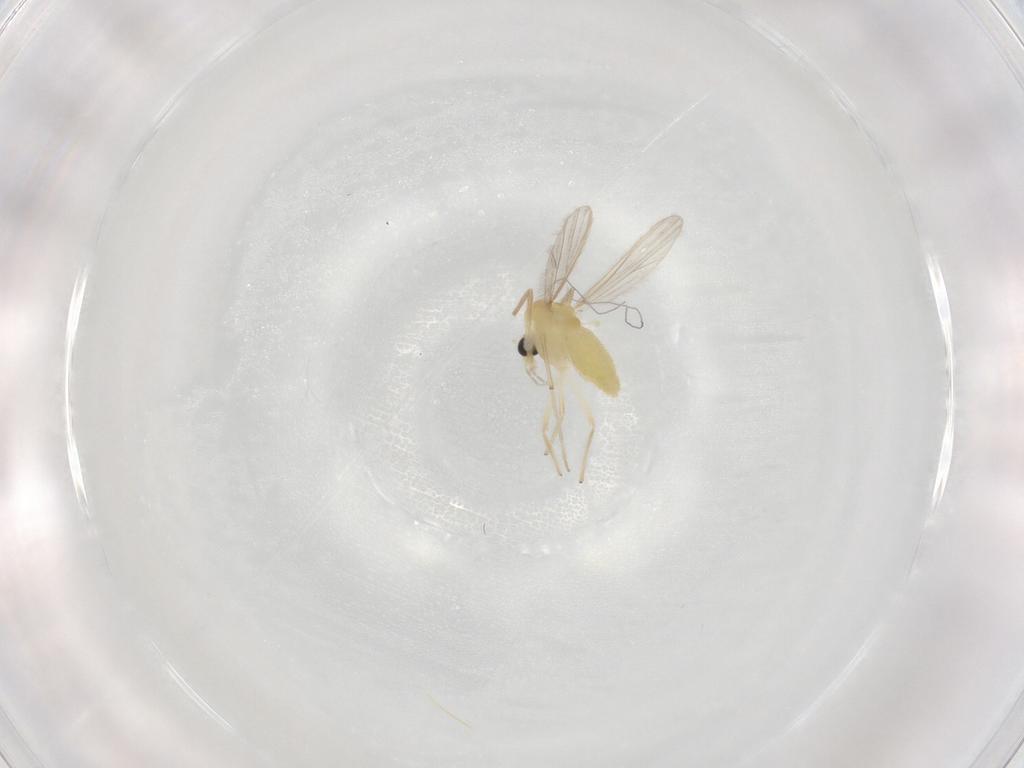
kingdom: Animalia
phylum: Arthropoda
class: Insecta
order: Diptera
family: Chironomidae
